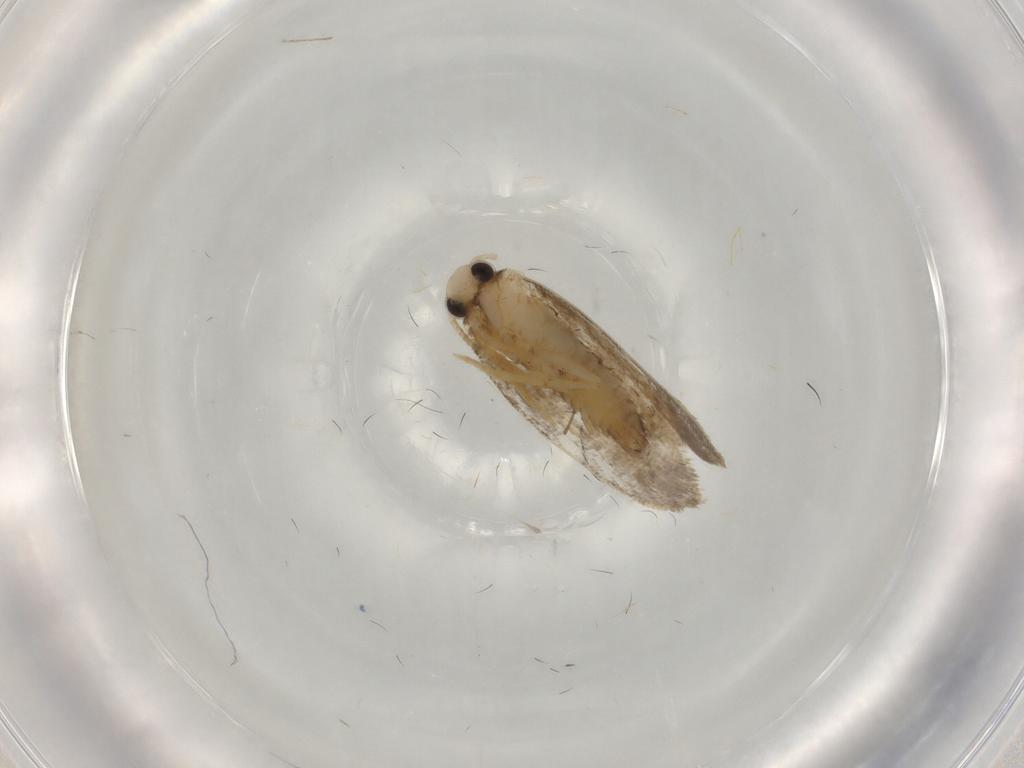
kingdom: Animalia
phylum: Arthropoda
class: Insecta
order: Lepidoptera
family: Psychidae
